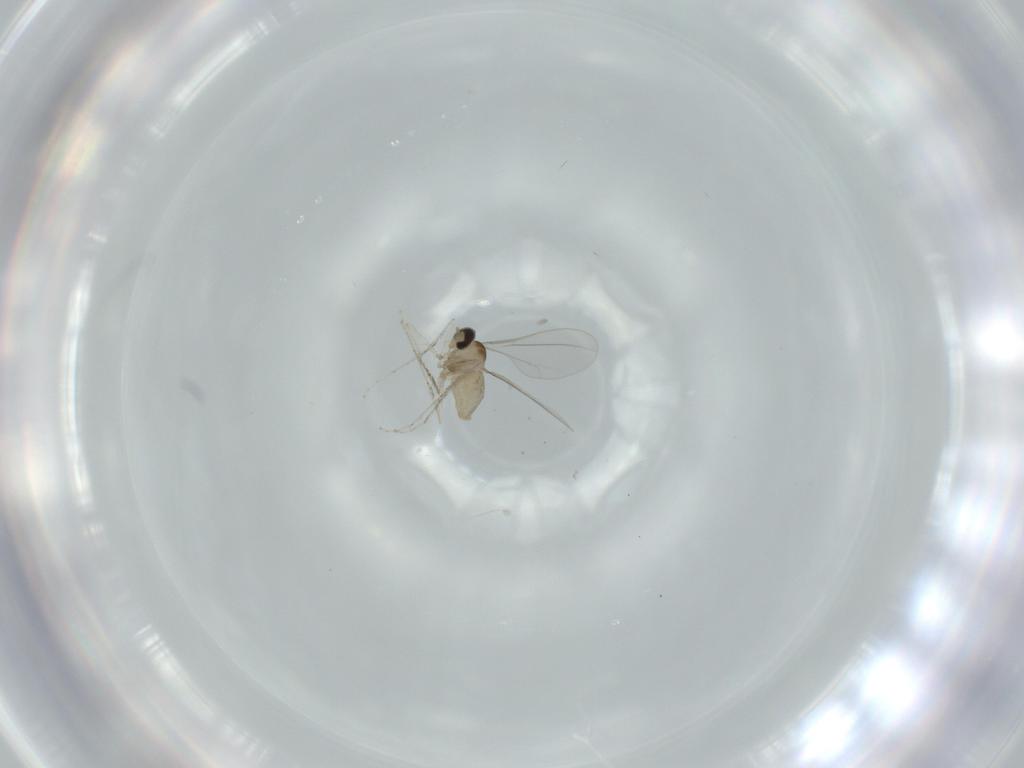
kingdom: Animalia
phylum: Arthropoda
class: Insecta
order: Diptera
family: Cecidomyiidae
